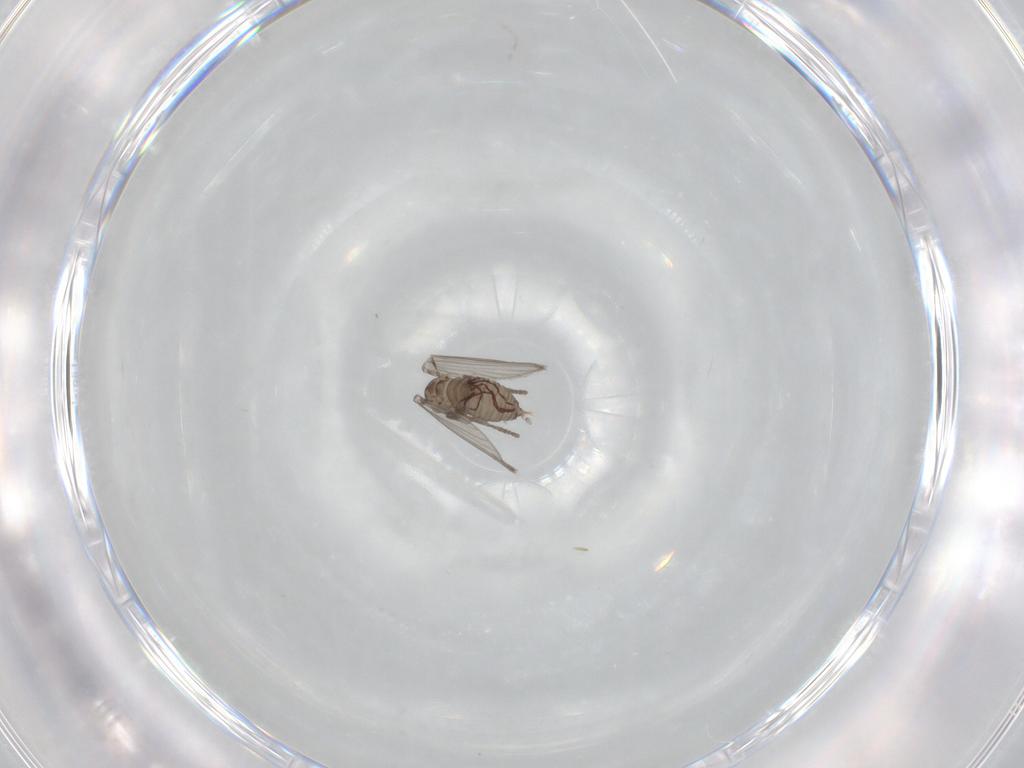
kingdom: Animalia
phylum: Arthropoda
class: Insecta
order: Diptera
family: Psychodidae
